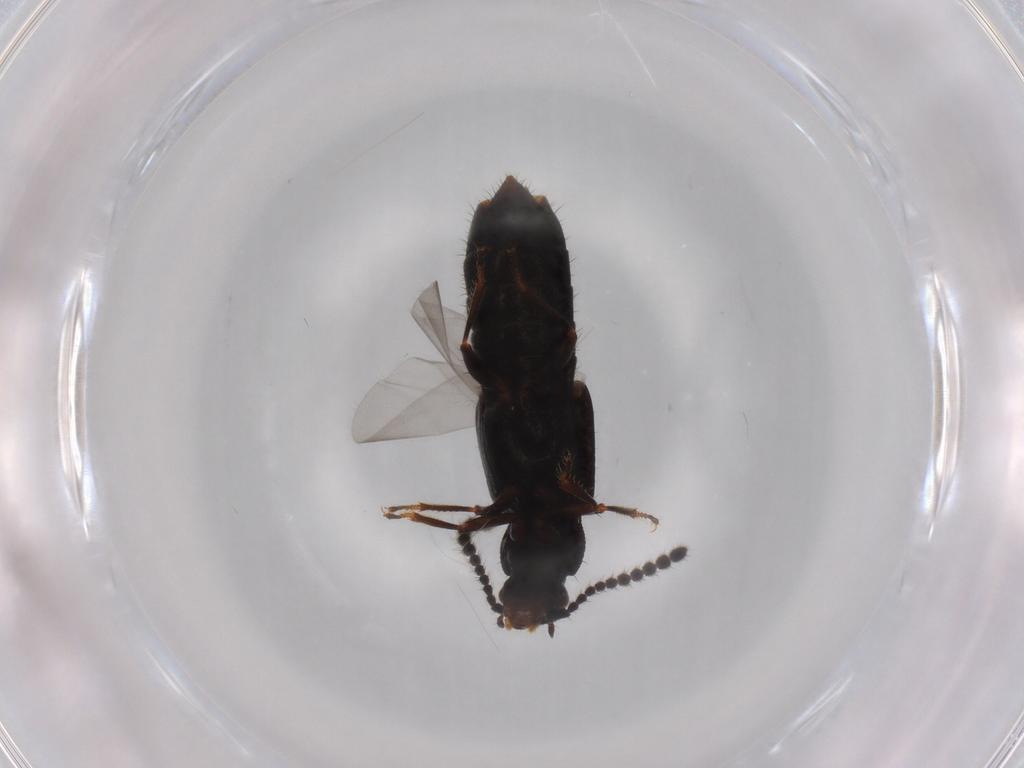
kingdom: Animalia
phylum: Arthropoda
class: Insecta
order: Coleoptera
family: Staphylinidae
